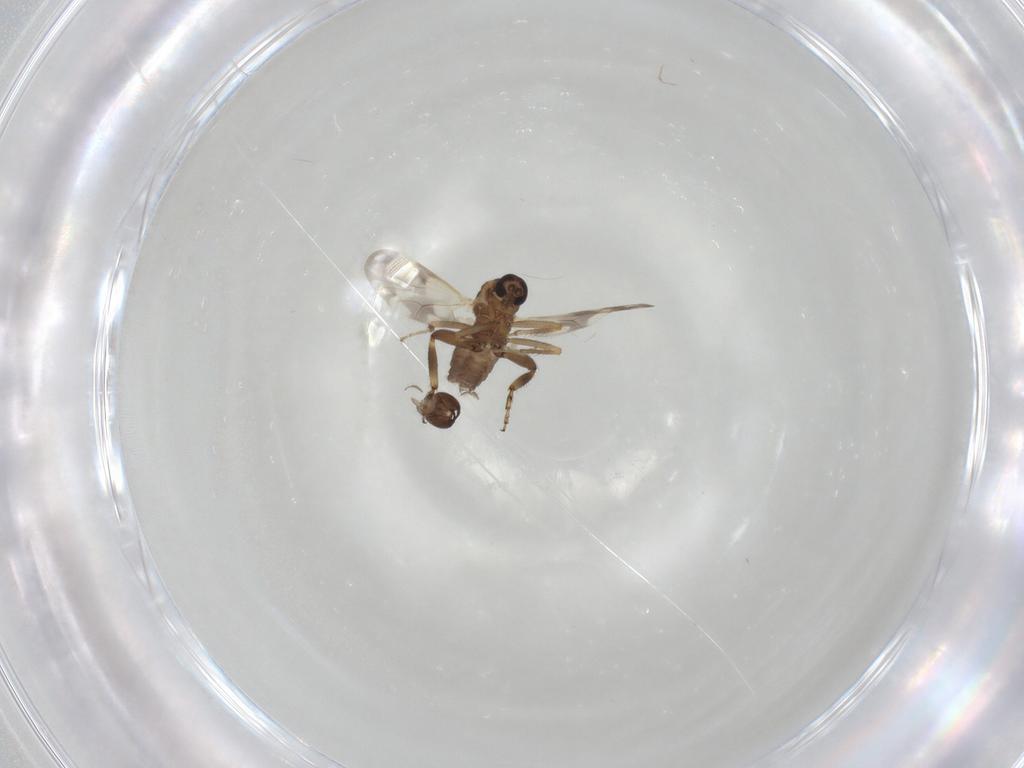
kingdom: Animalia
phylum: Arthropoda
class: Insecta
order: Diptera
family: Ceratopogonidae
